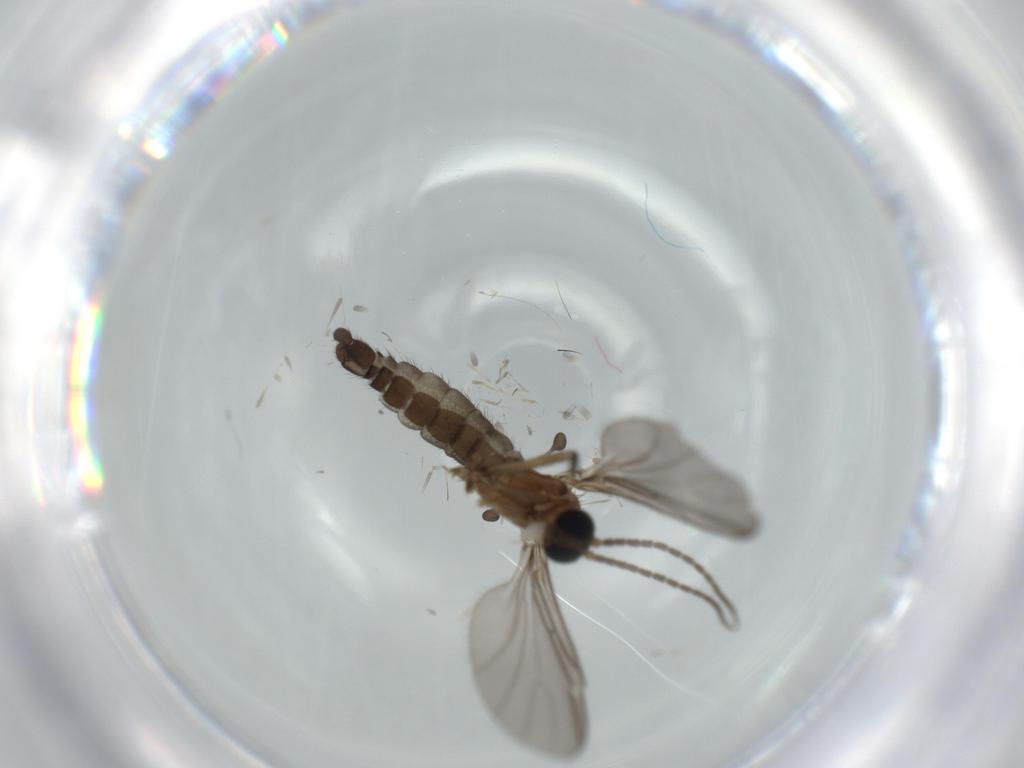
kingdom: Animalia
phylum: Arthropoda
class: Insecta
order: Diptera
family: Sciaridae
